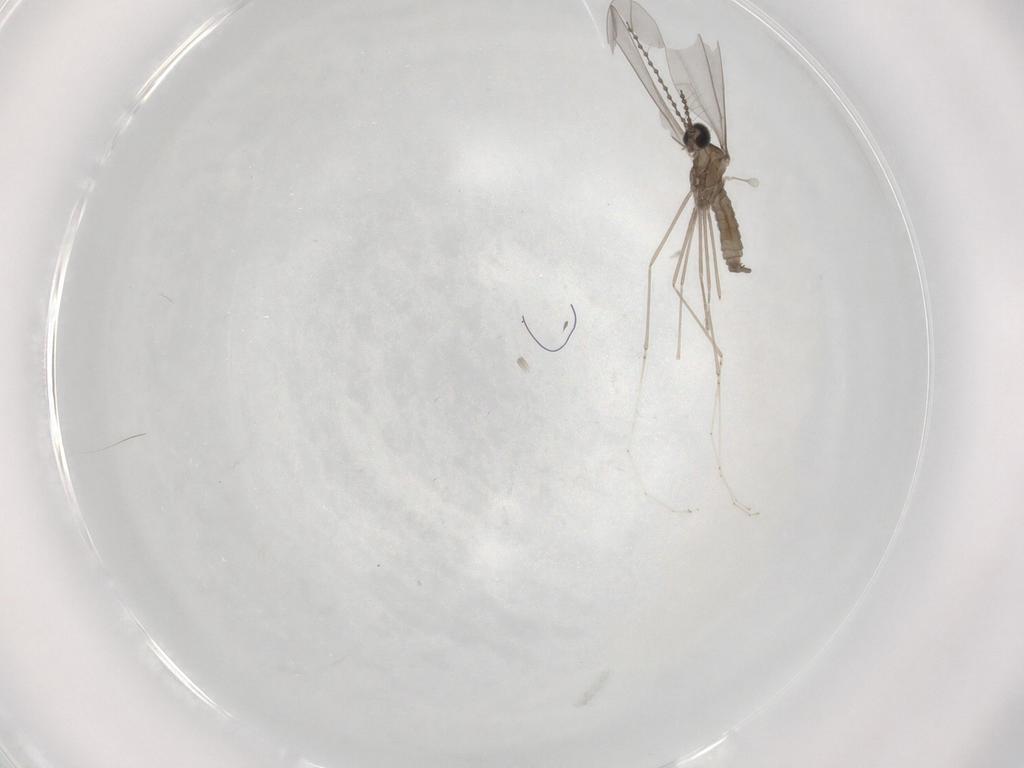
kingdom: Animalia
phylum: Arthropoda
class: Insecta
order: Diptera
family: Cecidomyiidae
